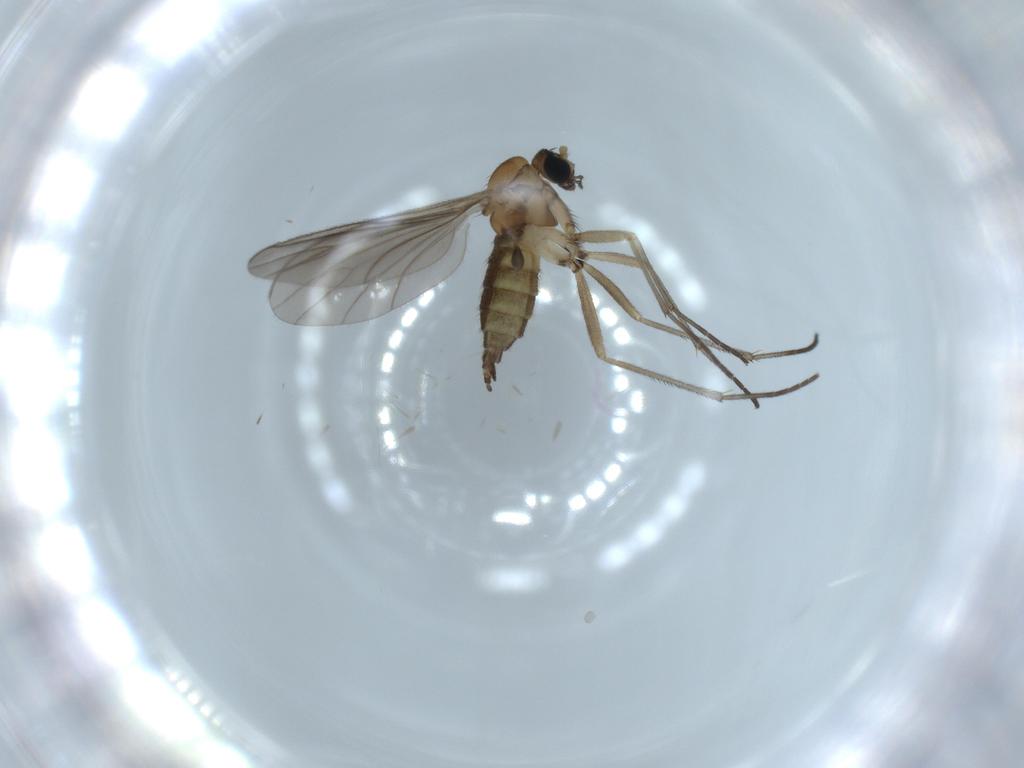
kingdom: Animalia
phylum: Arthropoda
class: Insecta
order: Diptera
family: Sciaridae
